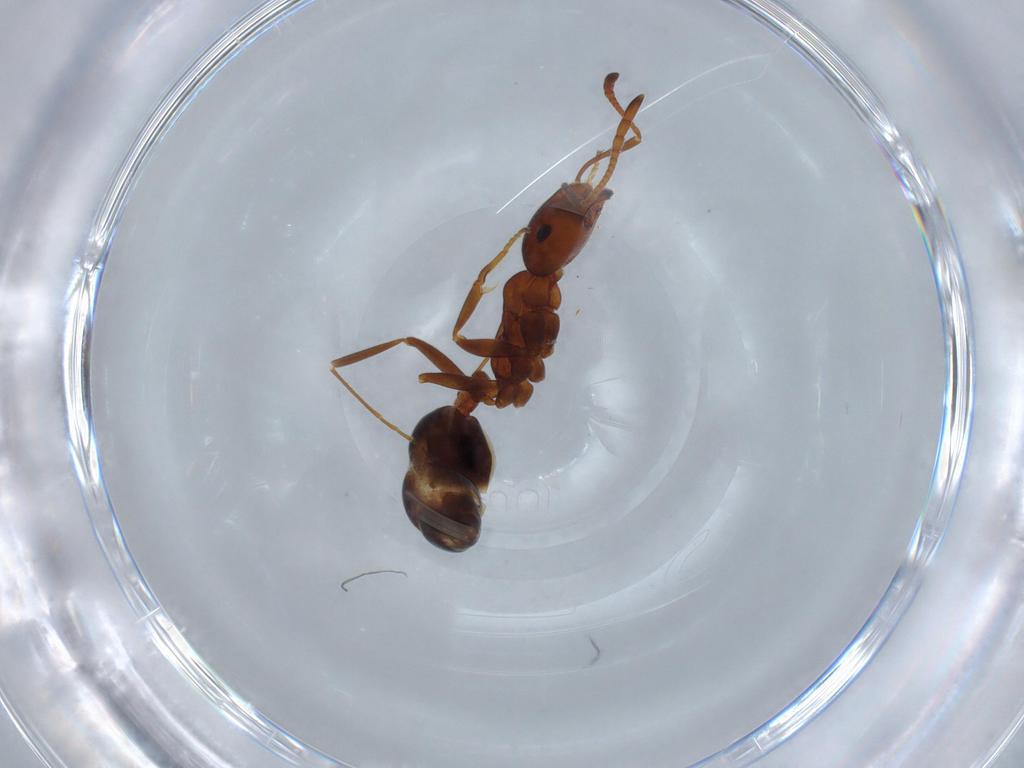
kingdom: Animalia
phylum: Arthropoda
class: Insecta
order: Hymenoptera
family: Formicidae
